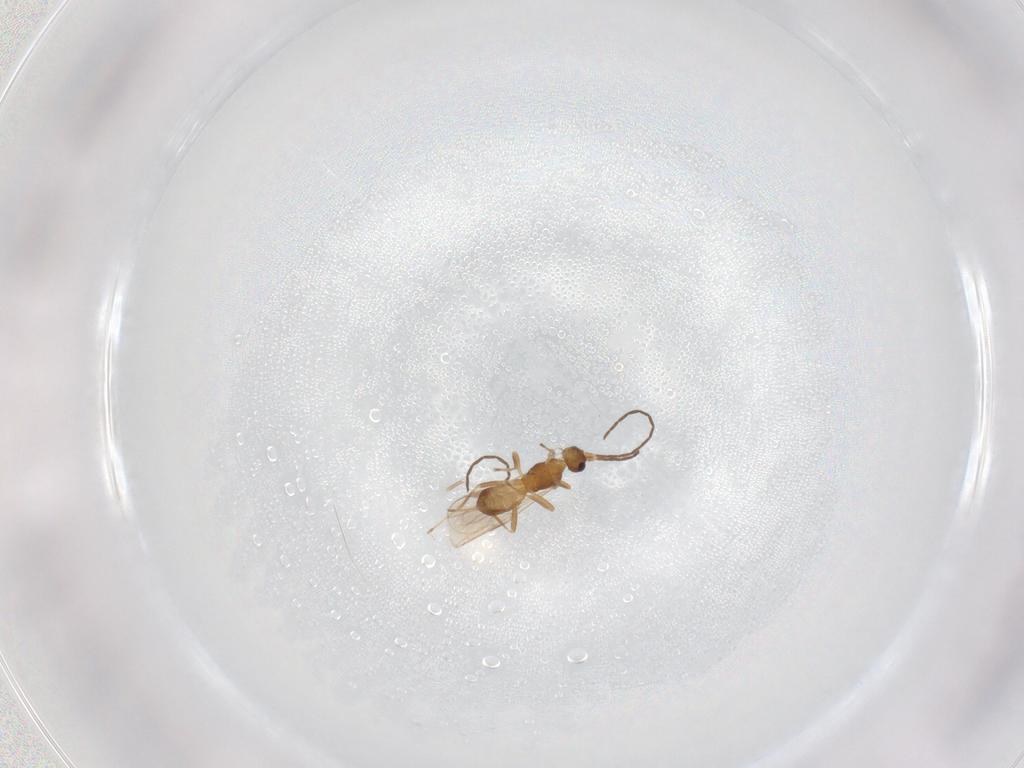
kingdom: Animalia
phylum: Arthropoda
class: Insecta
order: Hymenoptera
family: Braconidae
